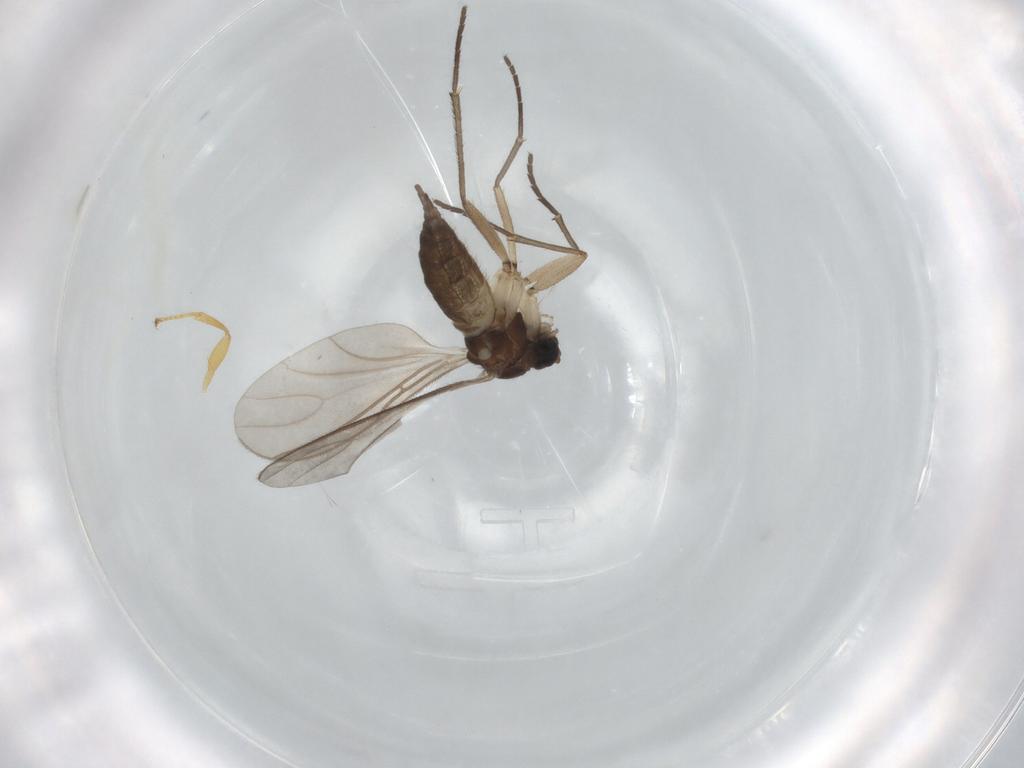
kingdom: Animalia
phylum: Arthropoda
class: Insecta
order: Diptera
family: Sciaridae
